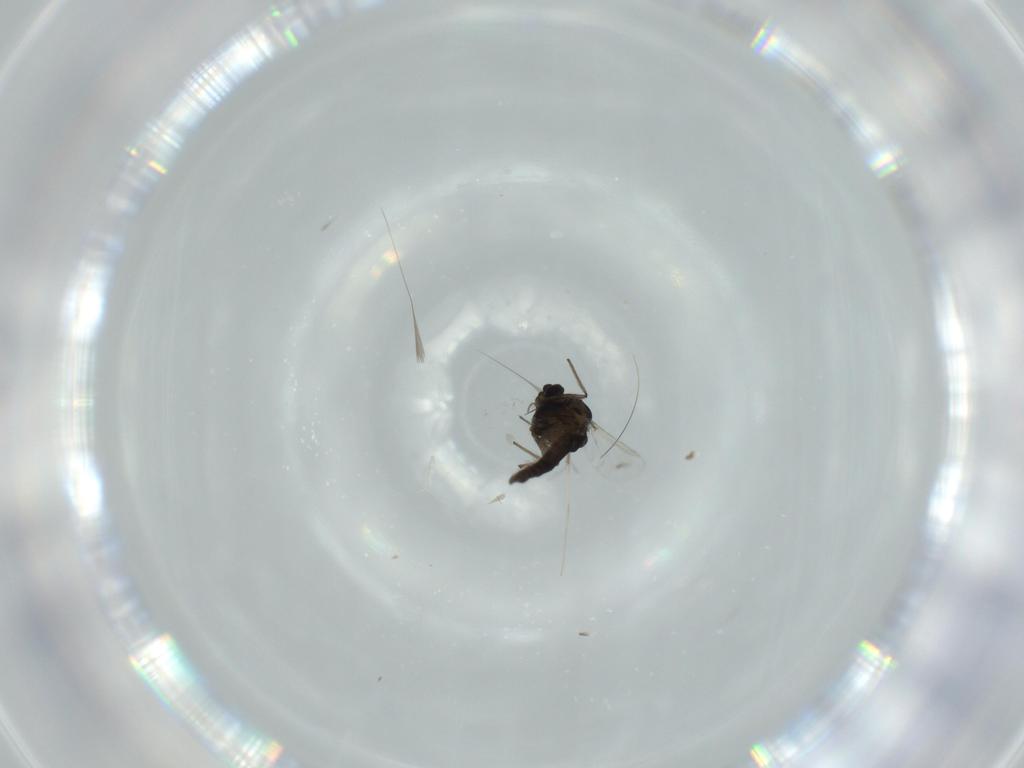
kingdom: Animalia
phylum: Arthropoda
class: Insecta
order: Diptera
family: Chironomidae
